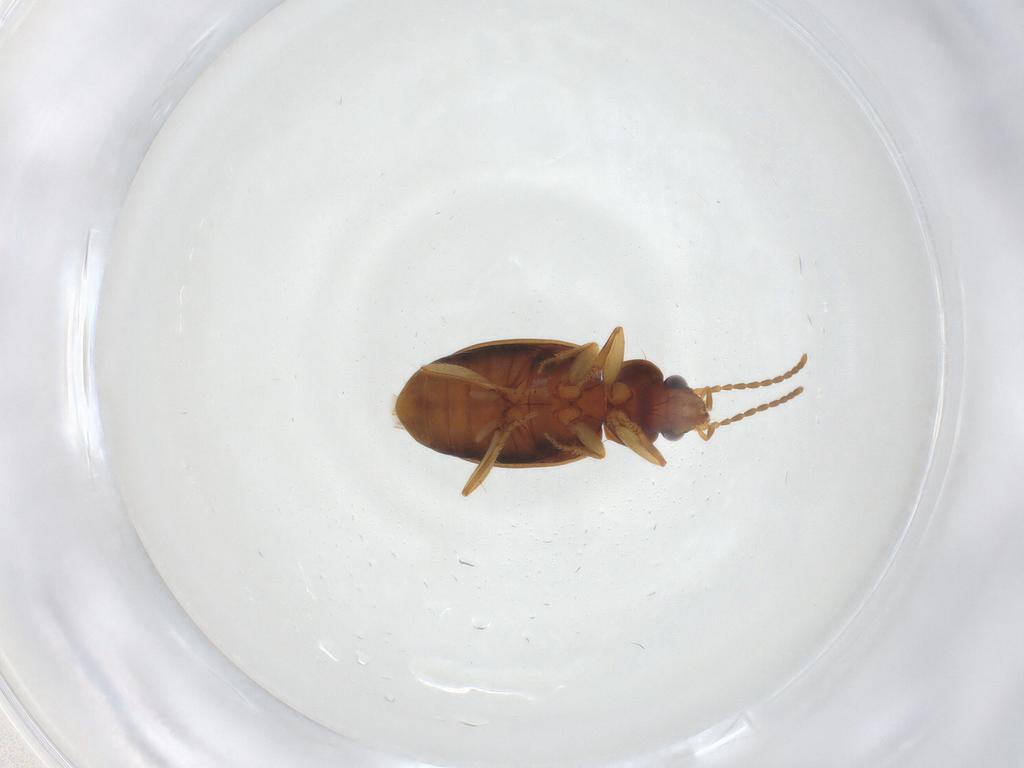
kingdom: Animalia
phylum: Arthropoda
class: Insecta
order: Coleoptera
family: Carabidae
